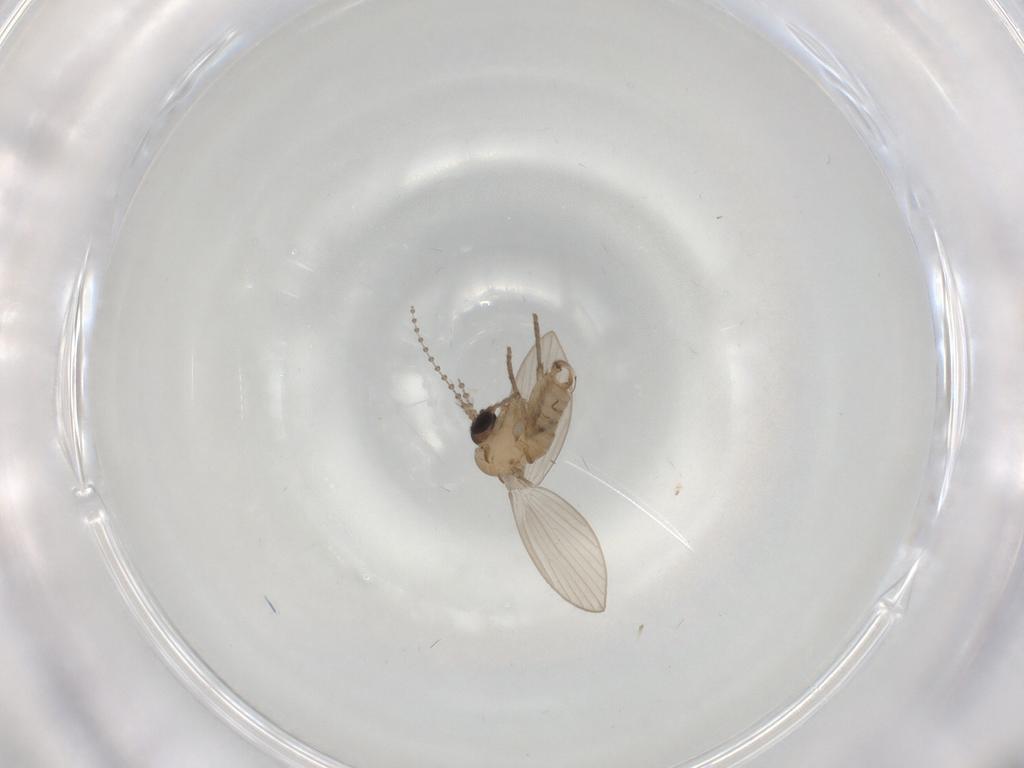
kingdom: Animalia
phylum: Arthropoda
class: Insecta
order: Diptera
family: Psychodidae
